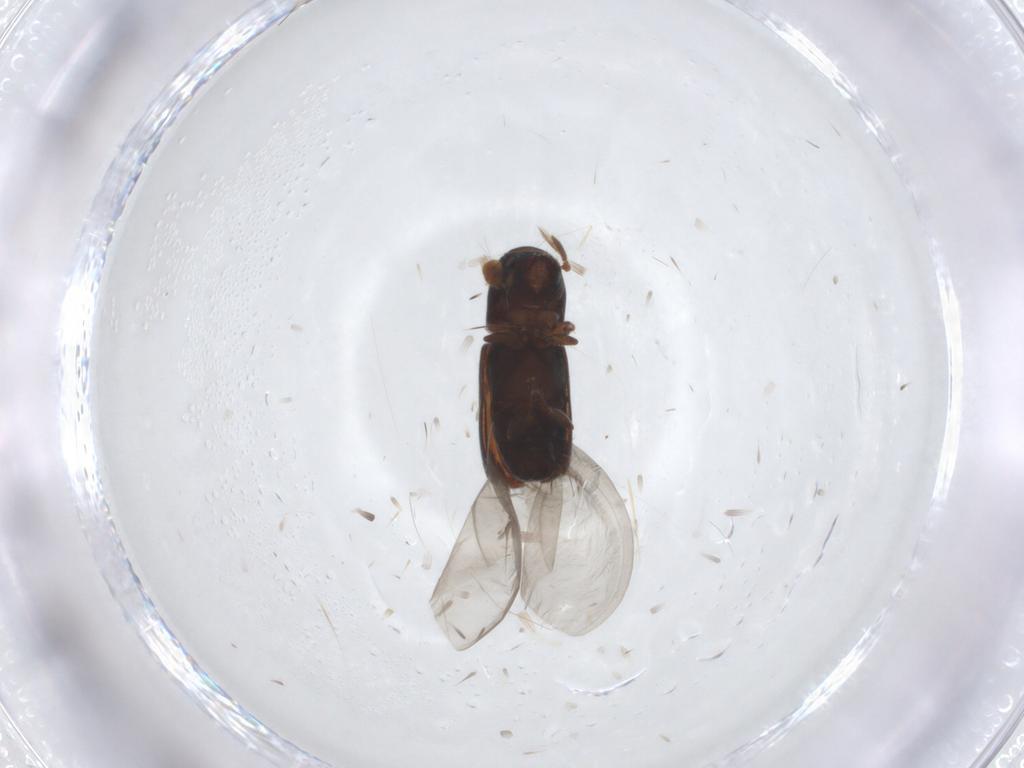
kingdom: Animalia
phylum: Arthropoda
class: Insecta
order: Coleoptera
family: Curculionidae
